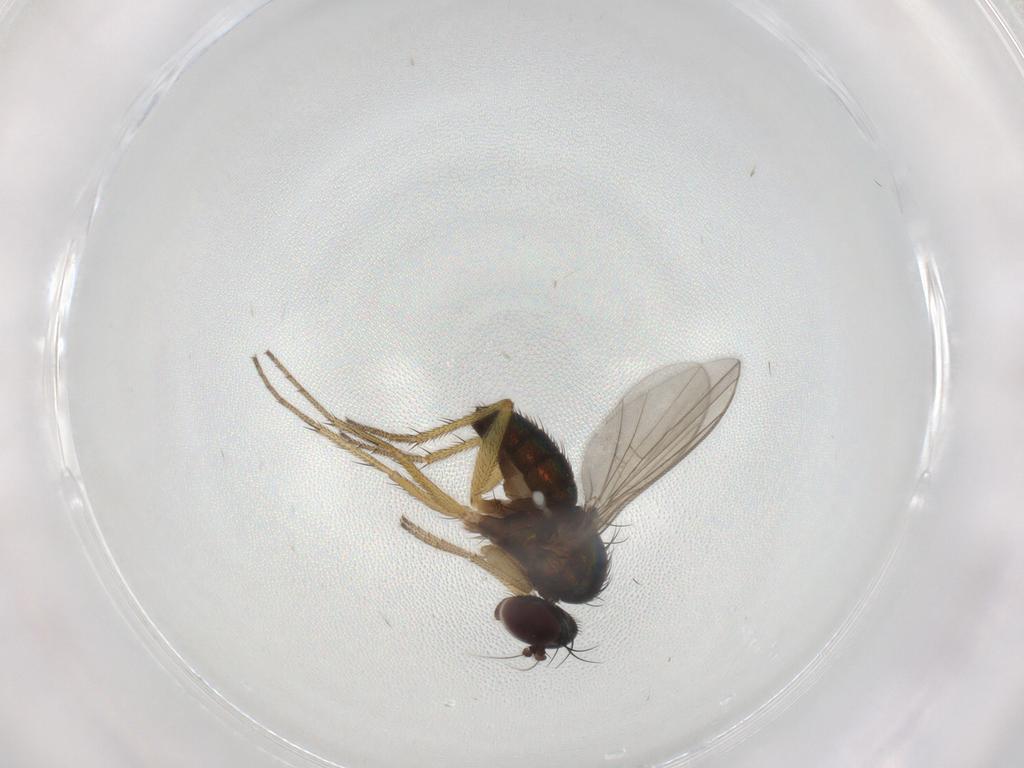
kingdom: Animalia
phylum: Arthropoda
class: Insecta
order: Diptera
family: Dolichopodidae
